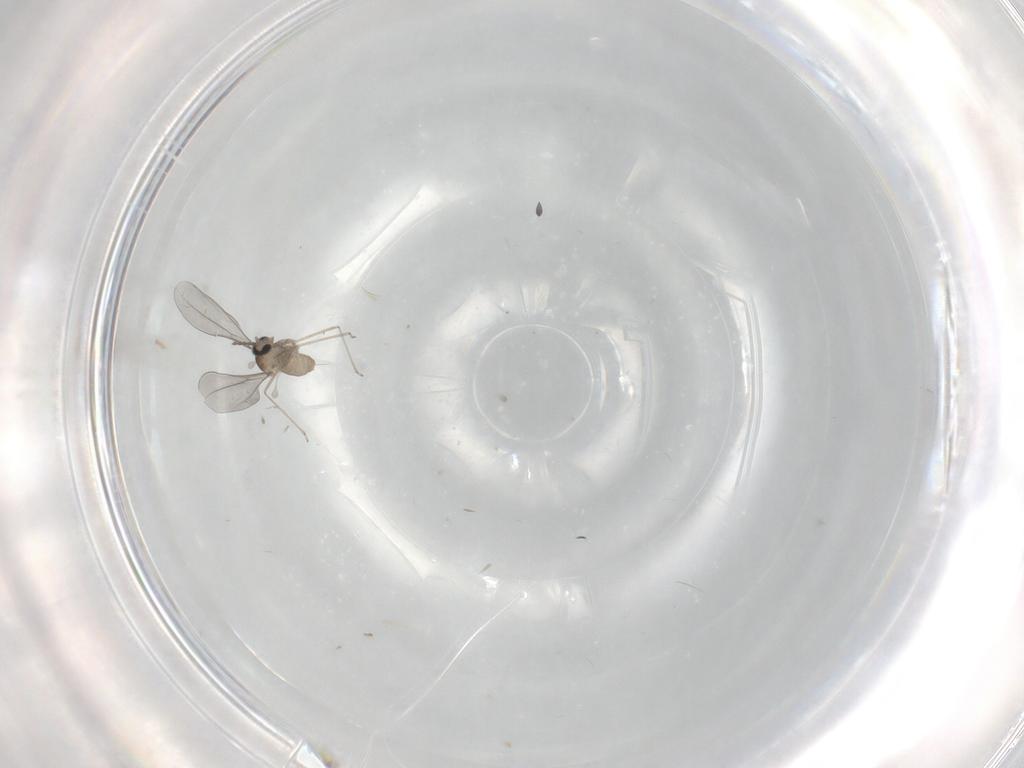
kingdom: Animalia
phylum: Arthropoda
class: Insecta
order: Diptera
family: Cecidomyiidae
